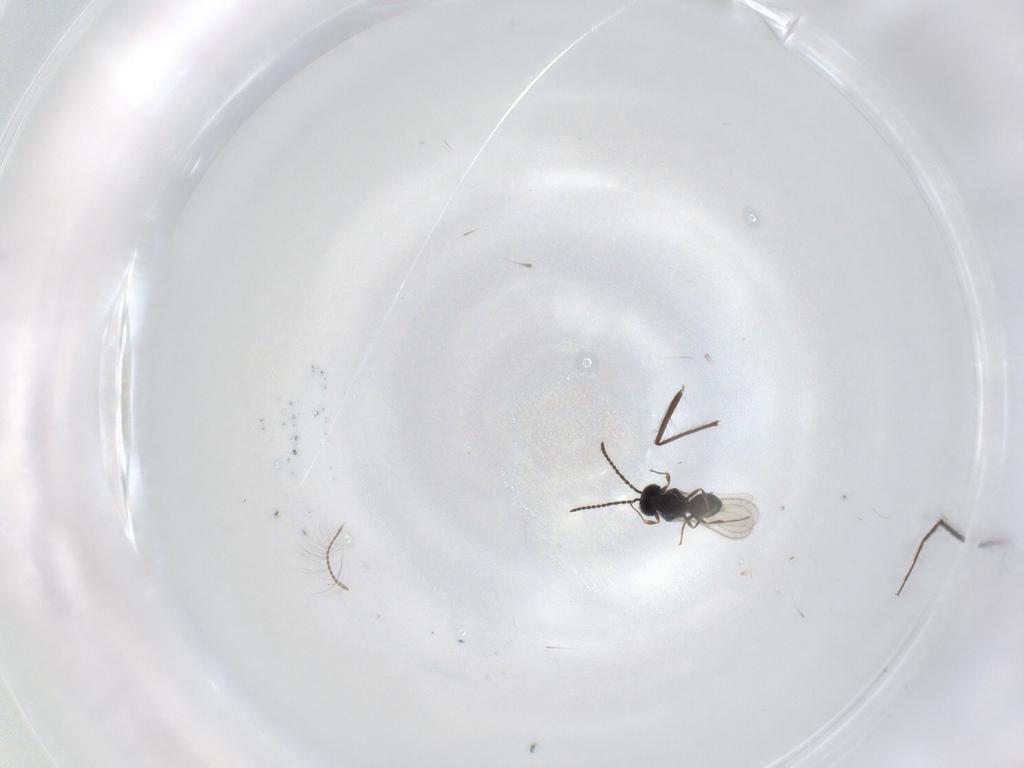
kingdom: Animalia
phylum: Arthropoda
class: Insecta
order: Hymenoptera
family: Scelionidae
